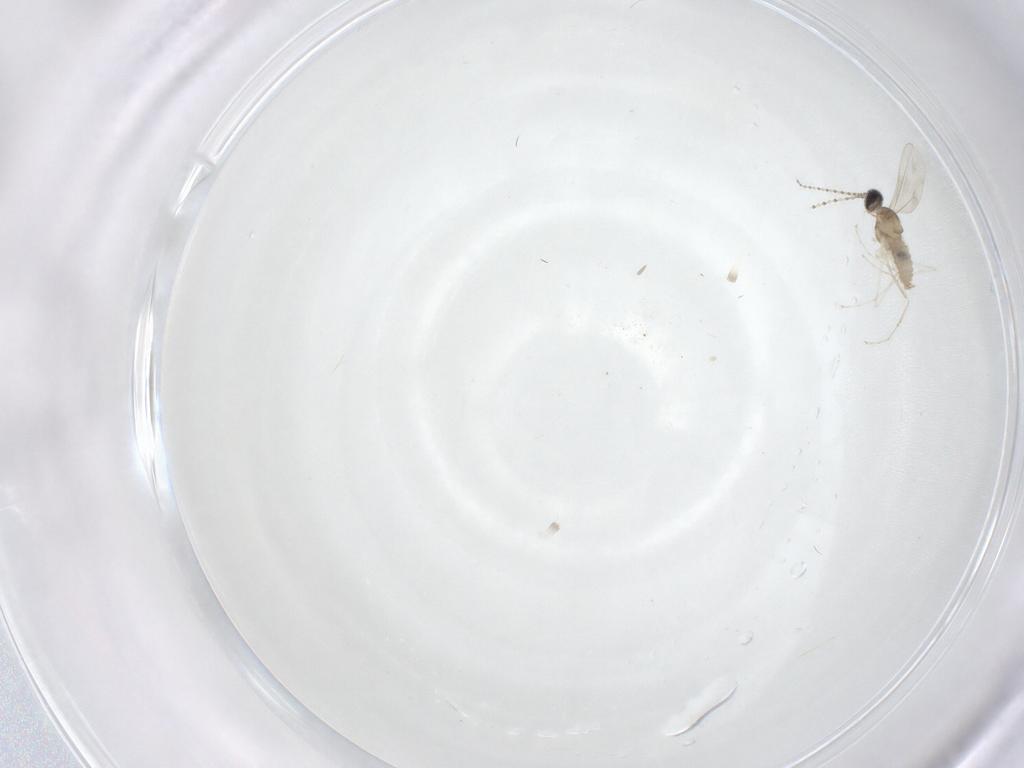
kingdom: Animalia
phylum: Arthropoda
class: Insecta
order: Diptera
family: Cecidomyiidae
